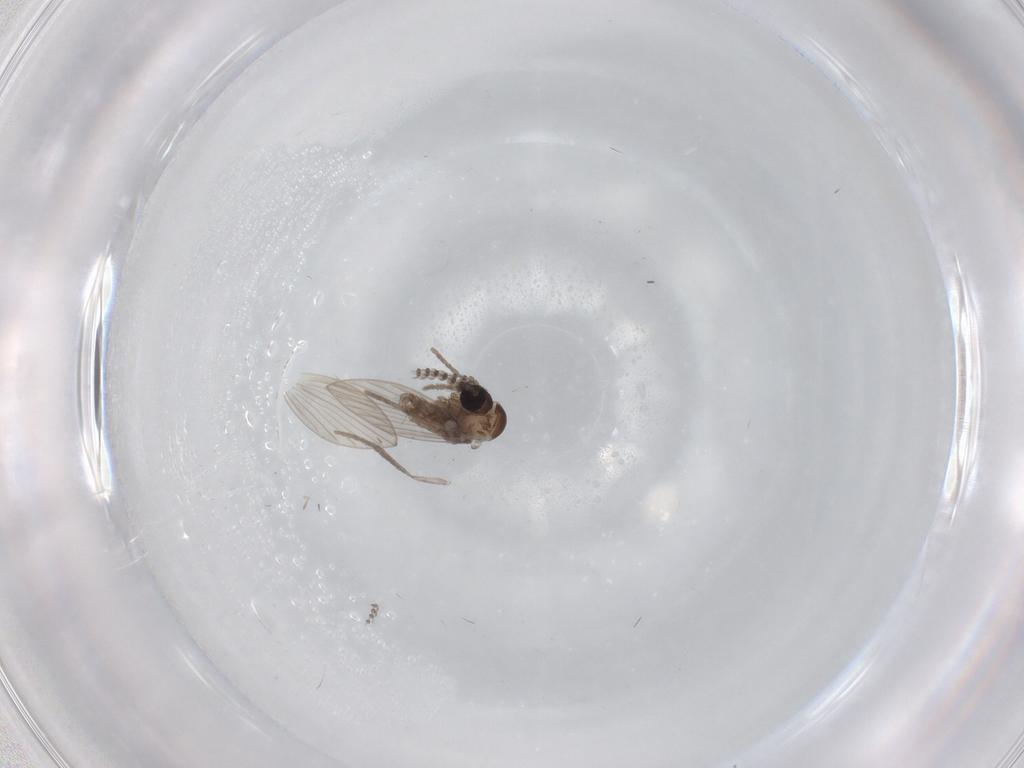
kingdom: Animalia
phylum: Arthropoda
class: Insecta
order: Diptera
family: Psychodidae
